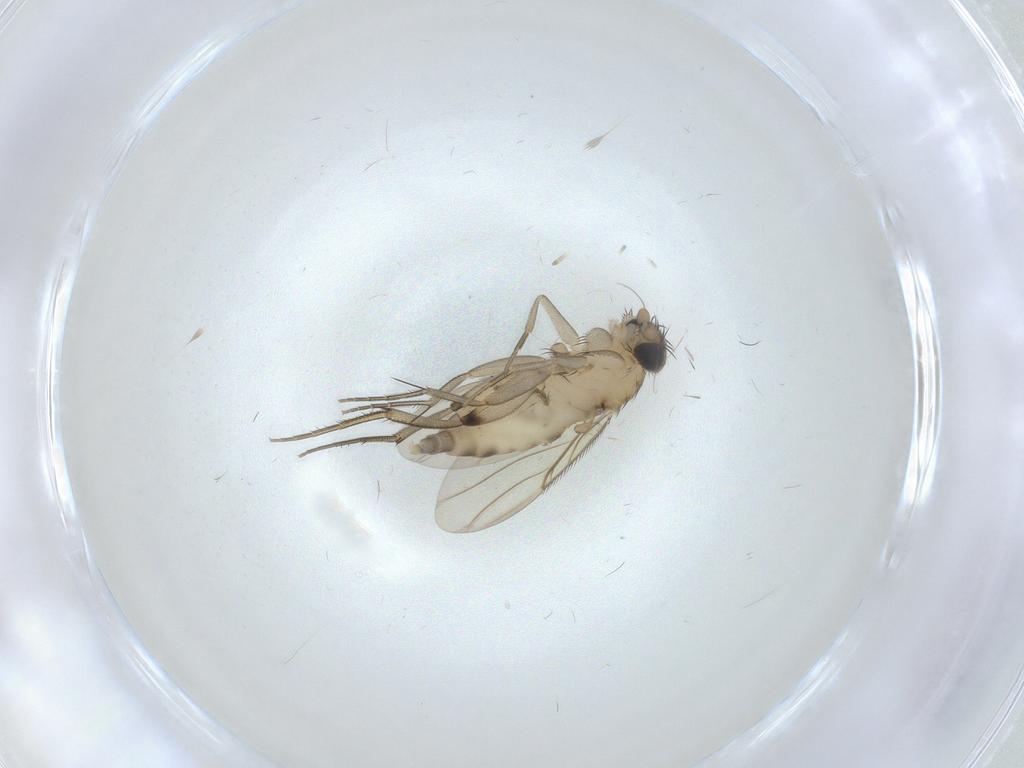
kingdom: Animalia
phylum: Arthropoda
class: Insecta
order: Diptera
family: Phoridae
